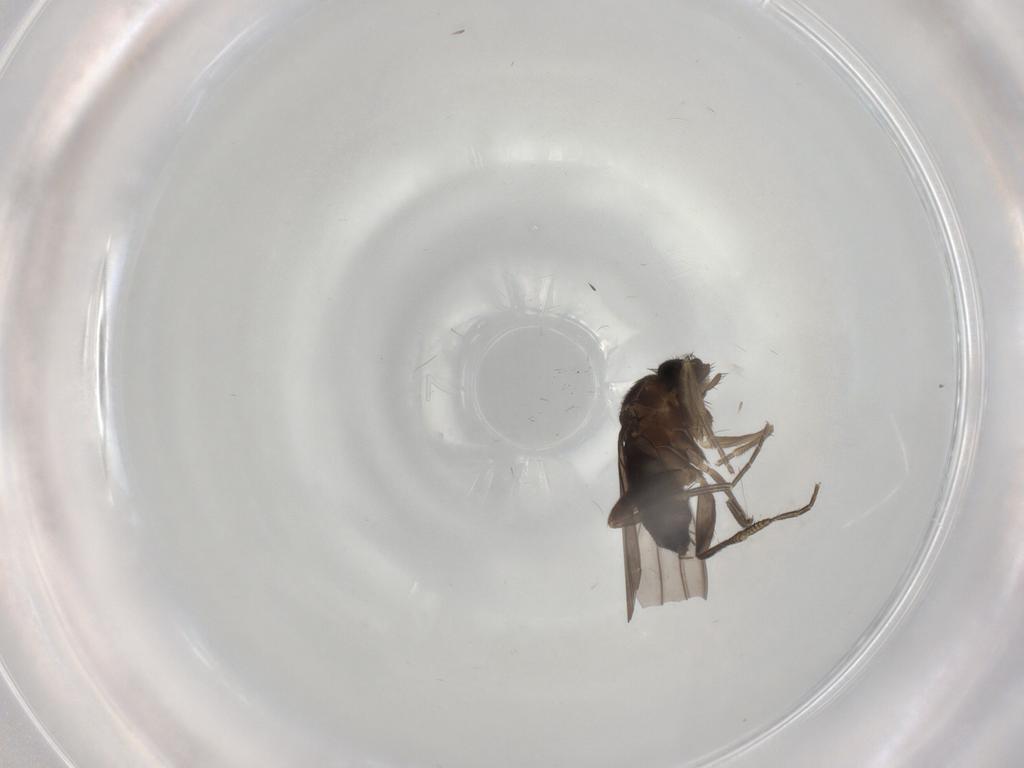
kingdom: Animalia
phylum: Arthropoda
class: Insecta
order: Diptera
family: Phoridae
